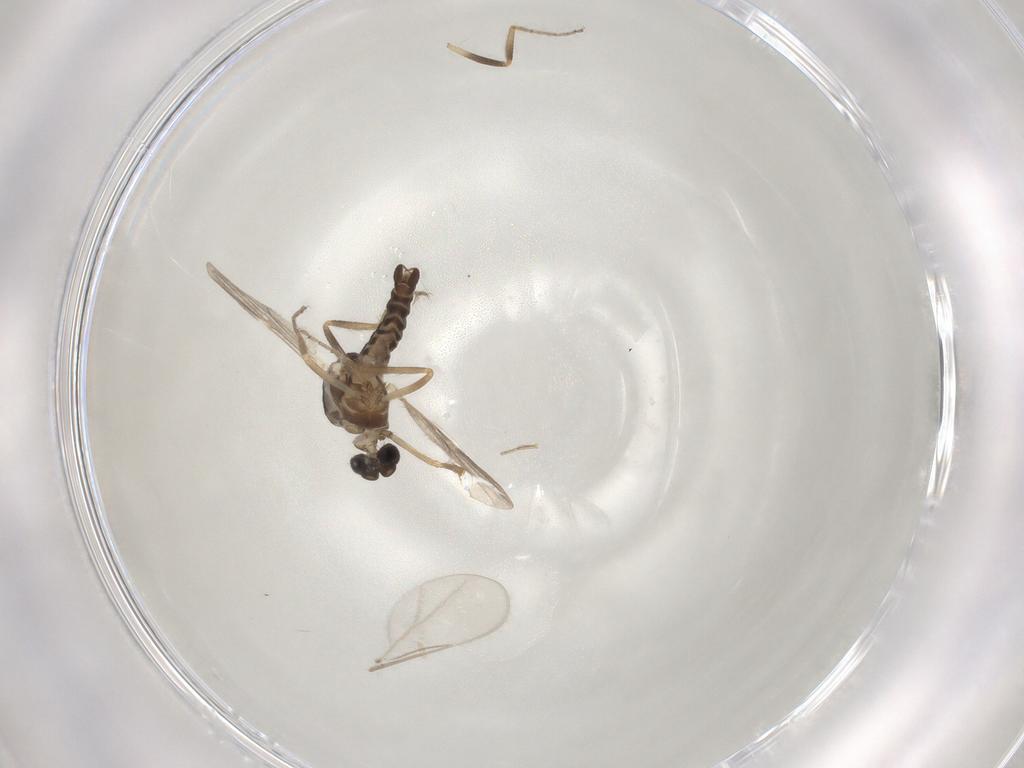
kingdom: Animalia
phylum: Arthropoda
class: Insecta
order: Diptera
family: Ceratopogonidae
